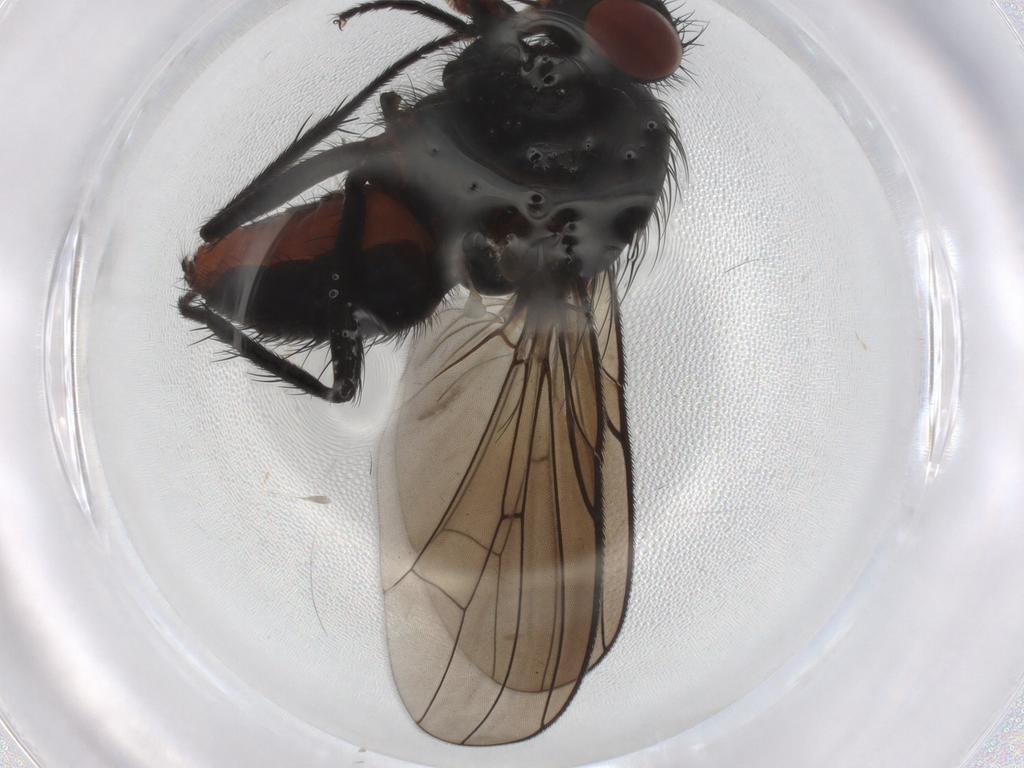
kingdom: Animalia
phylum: Arthropoda
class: Insecta
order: Diptera
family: Anthomyiidae
